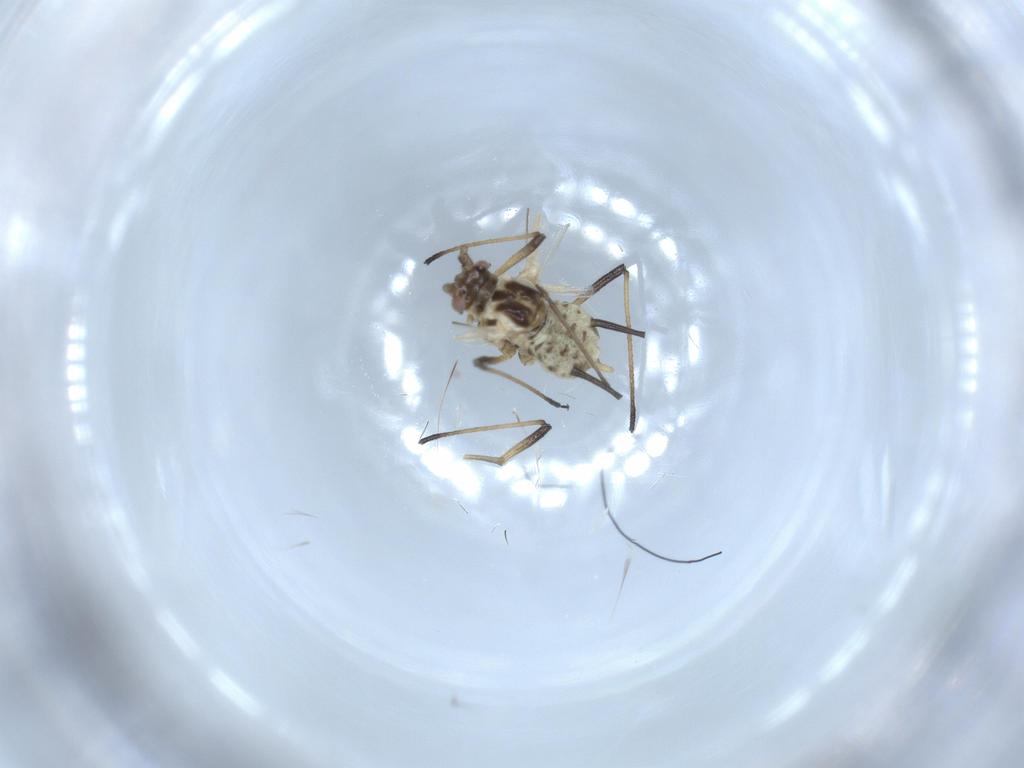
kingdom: Animalia
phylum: Arthropoda
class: Insecta
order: Hemiptera
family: Aphididae
